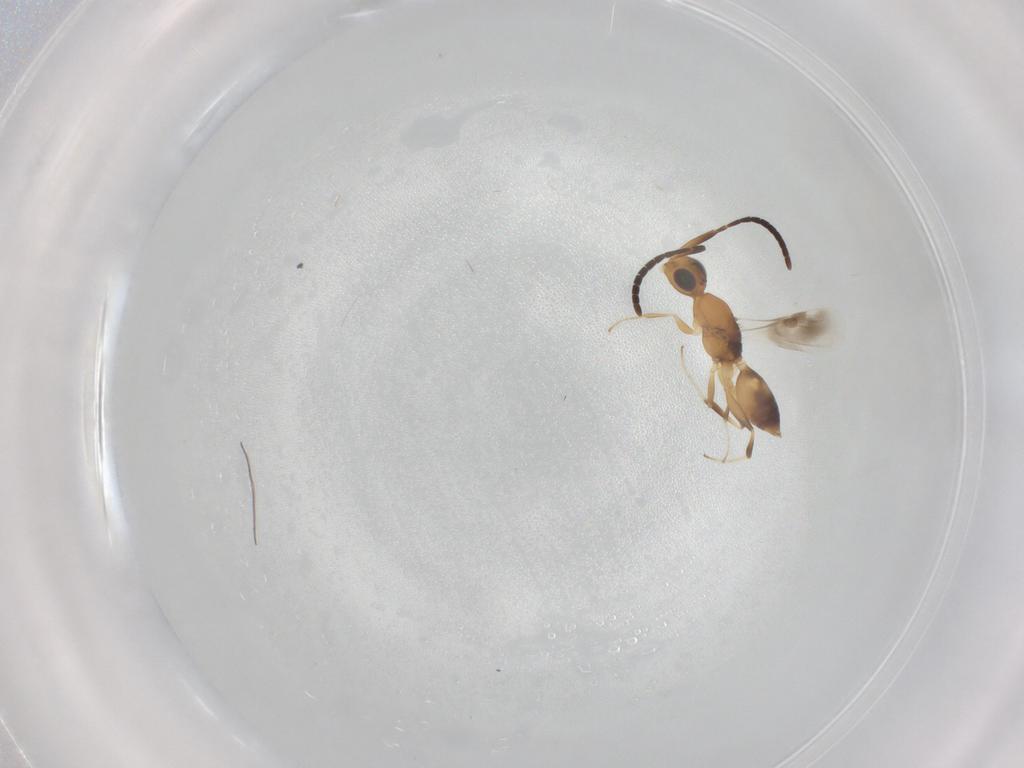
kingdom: Animalia
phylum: Arthropoda
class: Insecta
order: Hymenoptera
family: Aphelinidae
